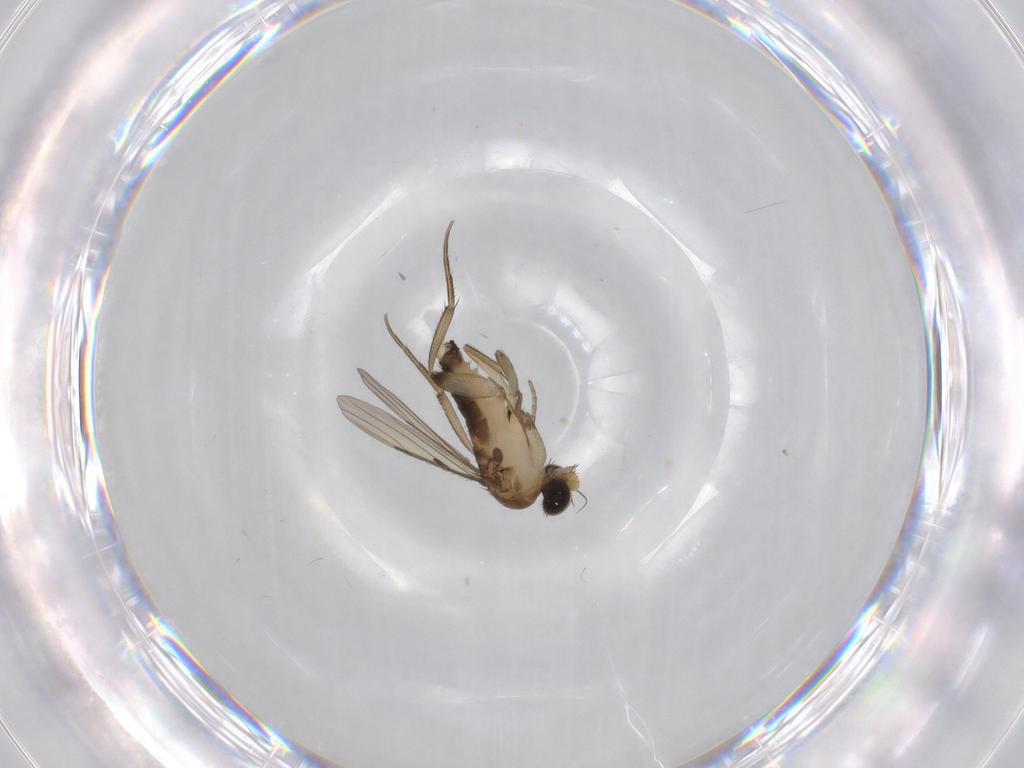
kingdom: Animalia
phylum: Arthropoda
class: Insecta
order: Diptera
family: Phoridae
